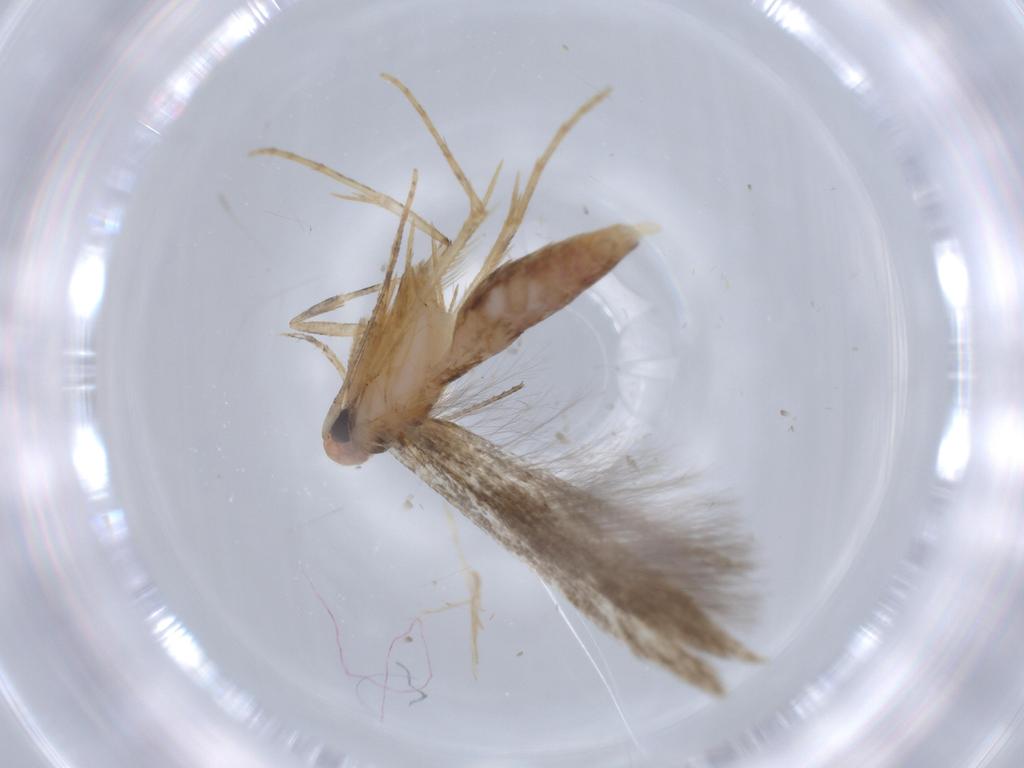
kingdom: Animalia
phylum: Arthropoda
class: Insecta
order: Lepidoptera
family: Heliodinidae
